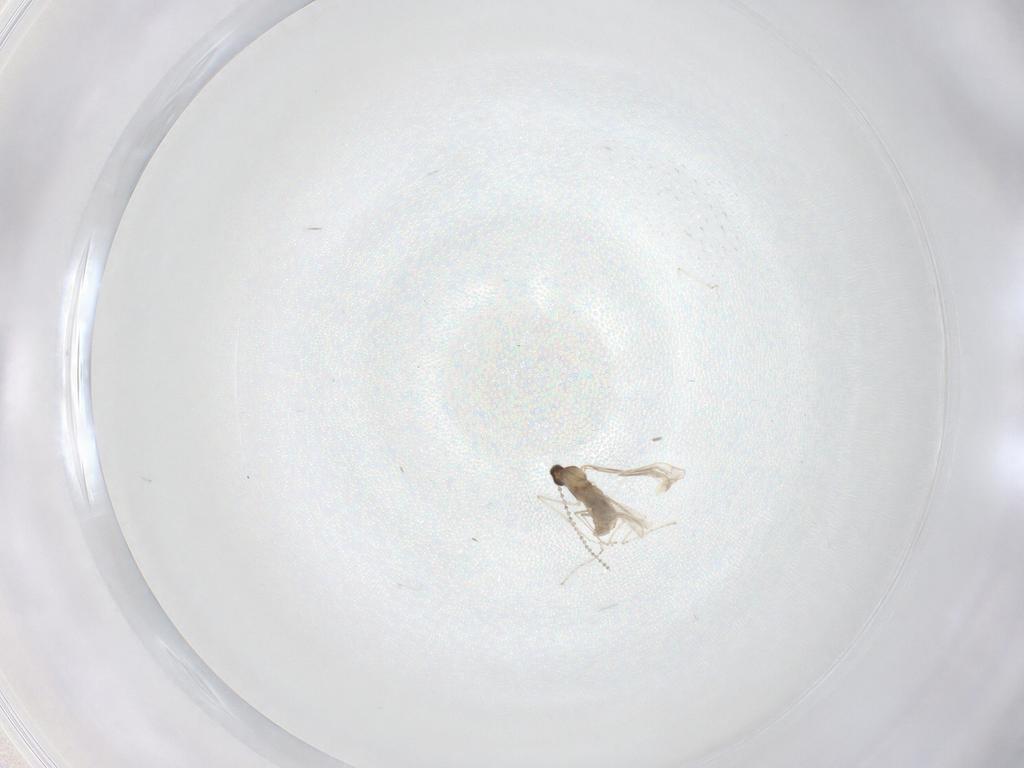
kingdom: Animalia
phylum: Arthropoda
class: Insecta
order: Diptera
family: Cecidomyiidae
